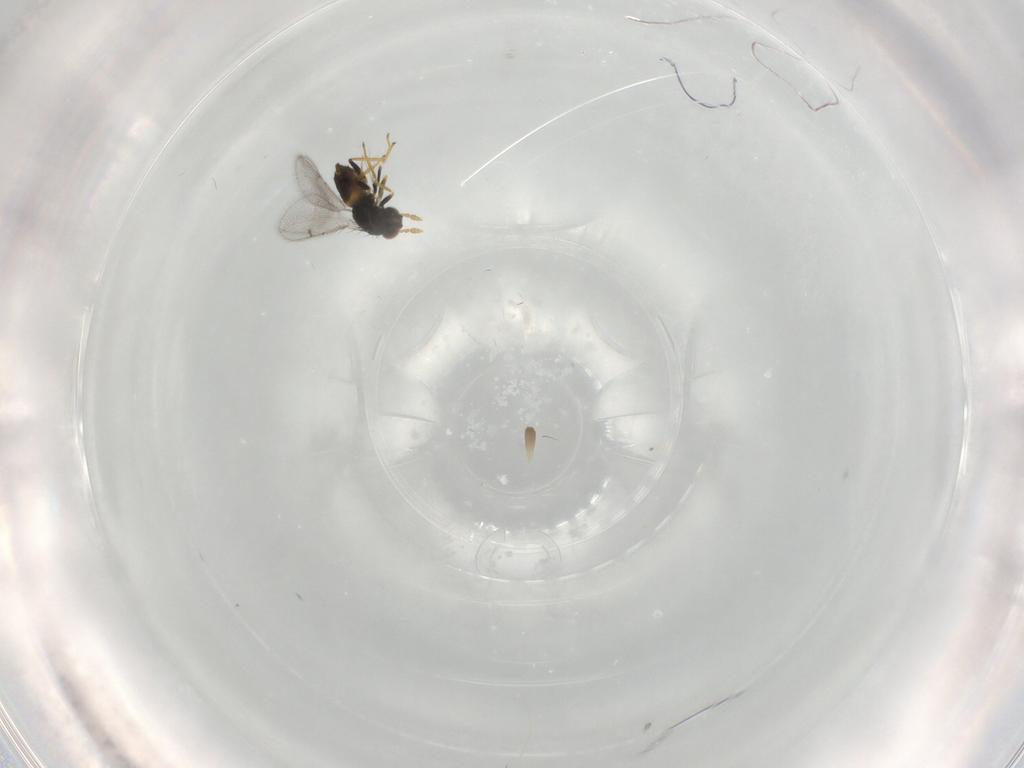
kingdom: Animalia
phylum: Arthropoda
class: Insecta
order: Hymenoptera
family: Eulophidae
